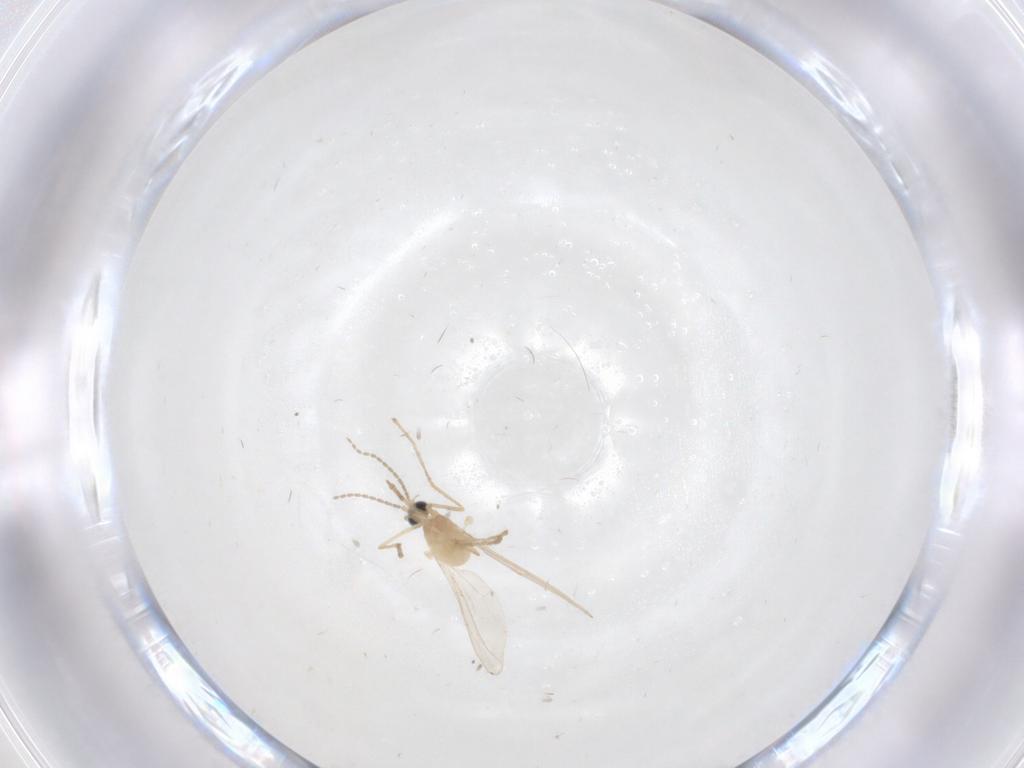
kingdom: Animalia
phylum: Arthropoda
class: Insecta
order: Diptera
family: Cecidomyiidae
